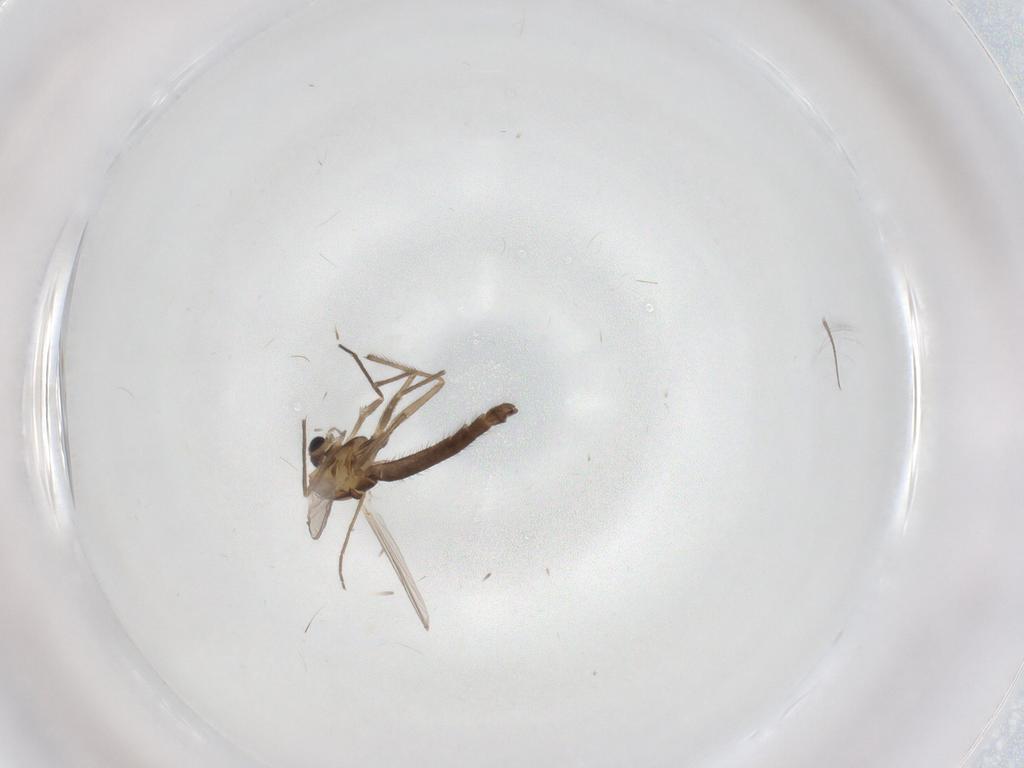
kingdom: Animalia
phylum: Arthropoda
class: Insecta
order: Diptera
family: Chironomidae
